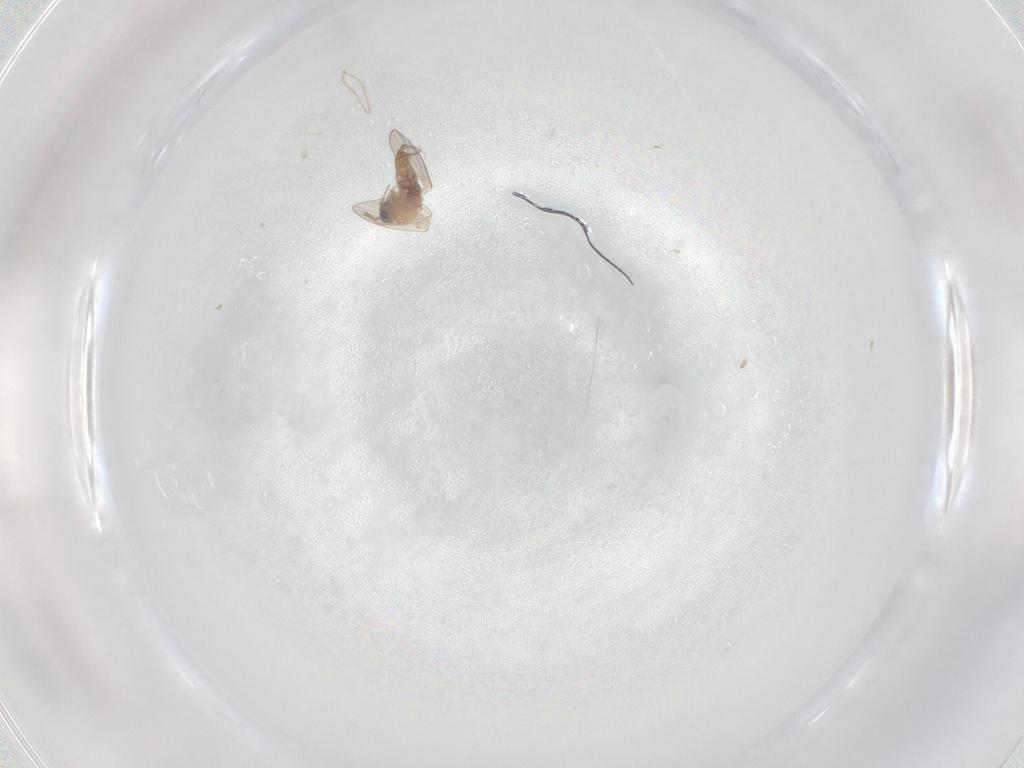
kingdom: Animalia
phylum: Arthropoda
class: Insecta
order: Diptera
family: Psychodidae
